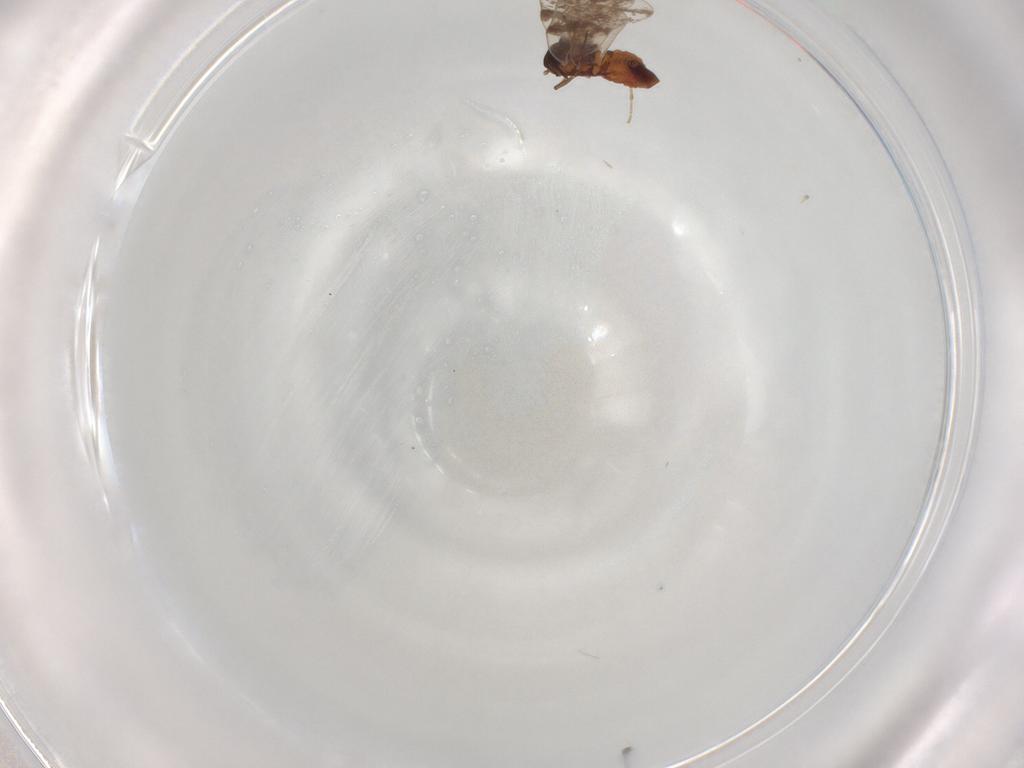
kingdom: Animalia
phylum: Arthropoda
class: Insecta
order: Hemiptera
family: Aleyrodidae
